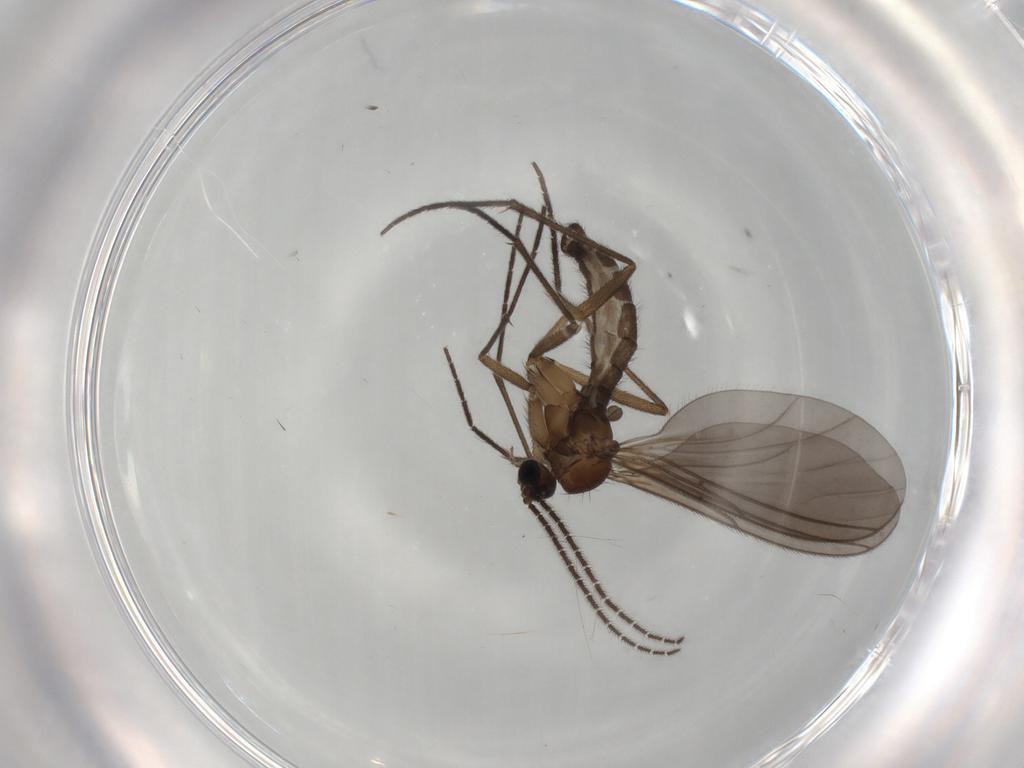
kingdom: Animalia
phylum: Arthropoda
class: Insecta
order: Diptera
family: Sciaridae
